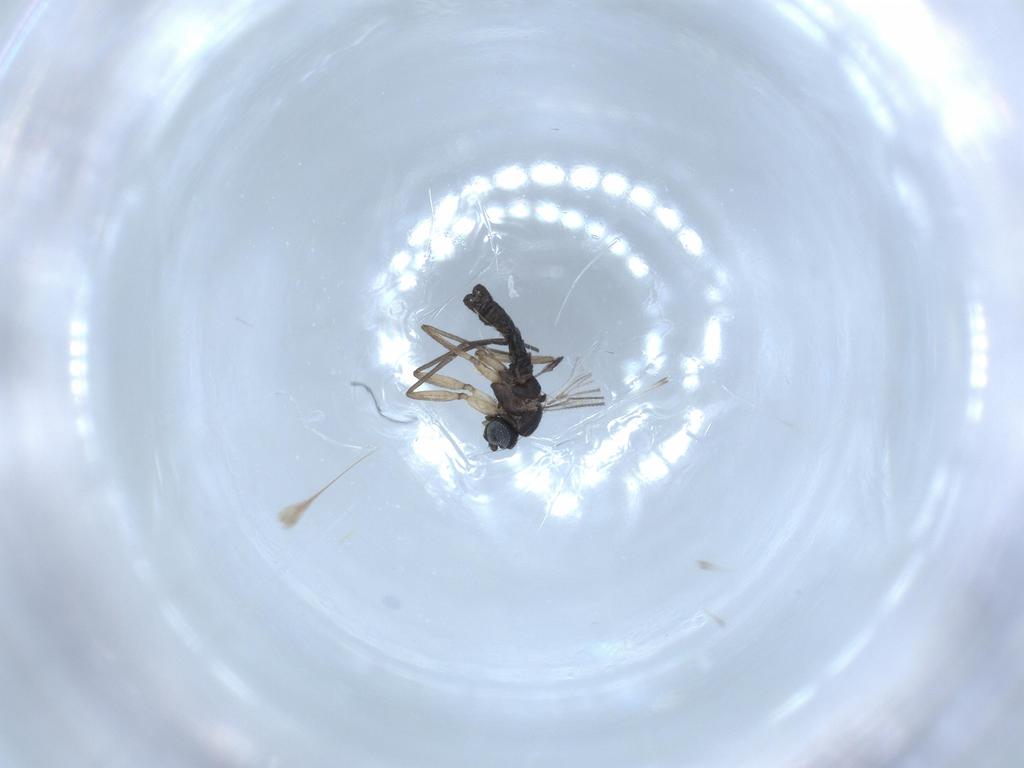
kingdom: Animalia
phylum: Arthropoda
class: Insecta
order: Diptera
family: Sciaridae
